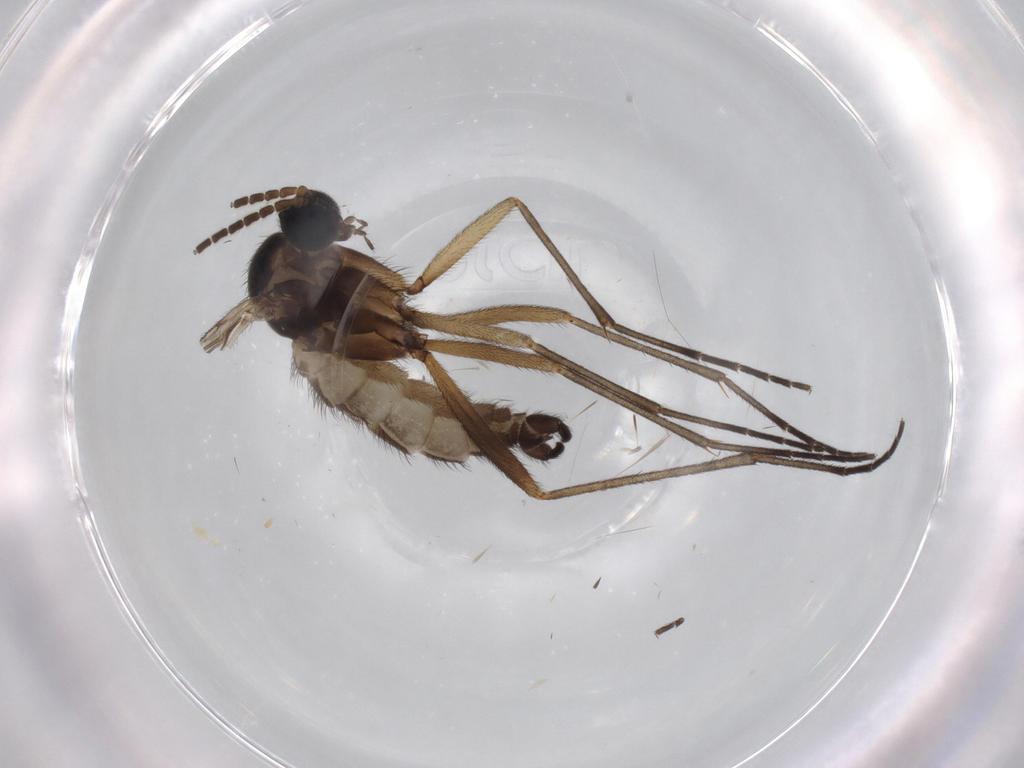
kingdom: Animalia
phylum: Arthropoda
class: Insecta
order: Diptera
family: Sciaridae
